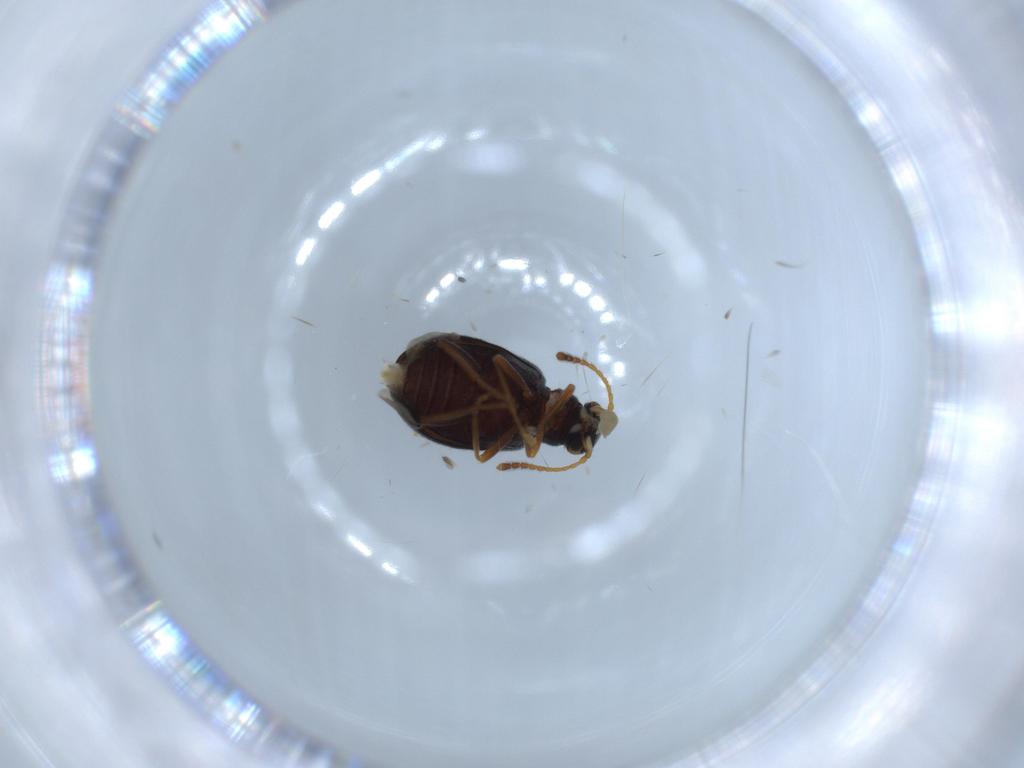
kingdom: Animalia
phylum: Arthropoda
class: Insecta
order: Coleoptera
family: Aderidae
